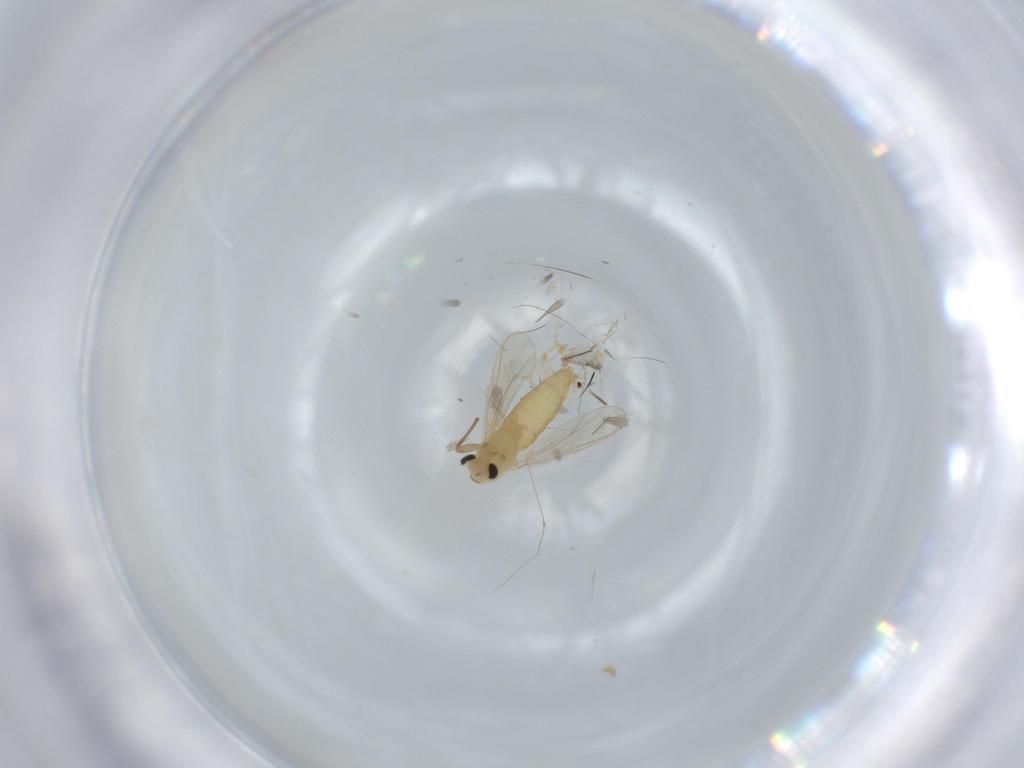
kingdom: Animalia
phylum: Arthropoda
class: Insecta
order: Diptera
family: Chironomidae
